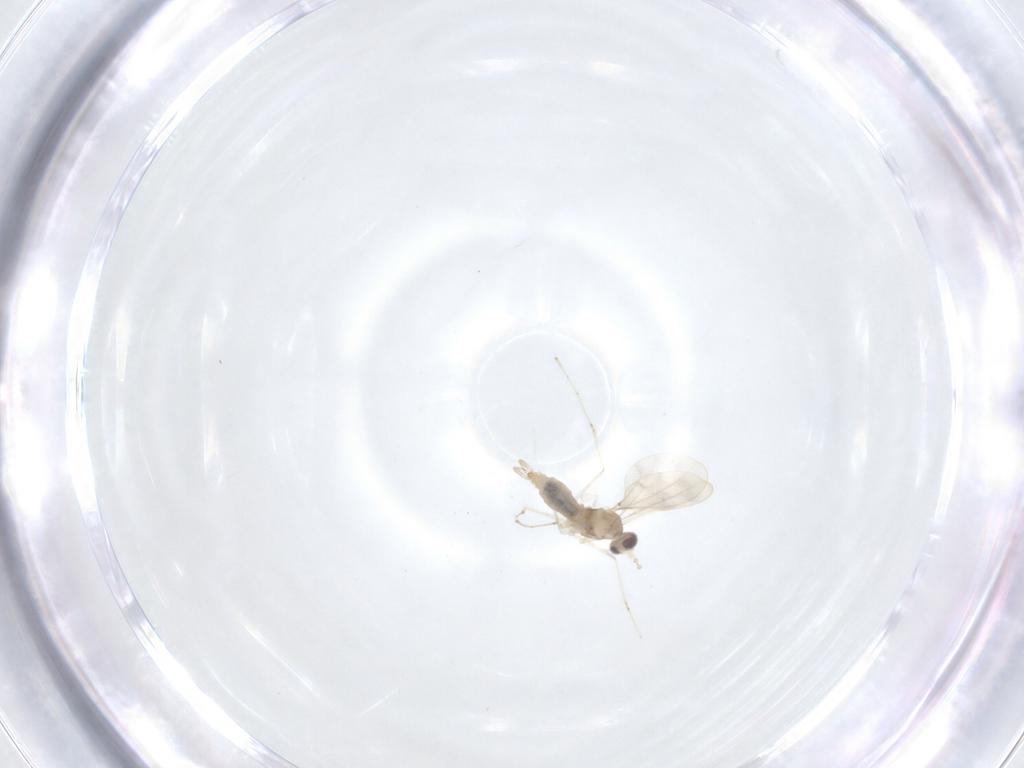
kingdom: Animalia
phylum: Arthropoda
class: Insecta
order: Diptera
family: Cecidomyiidae
